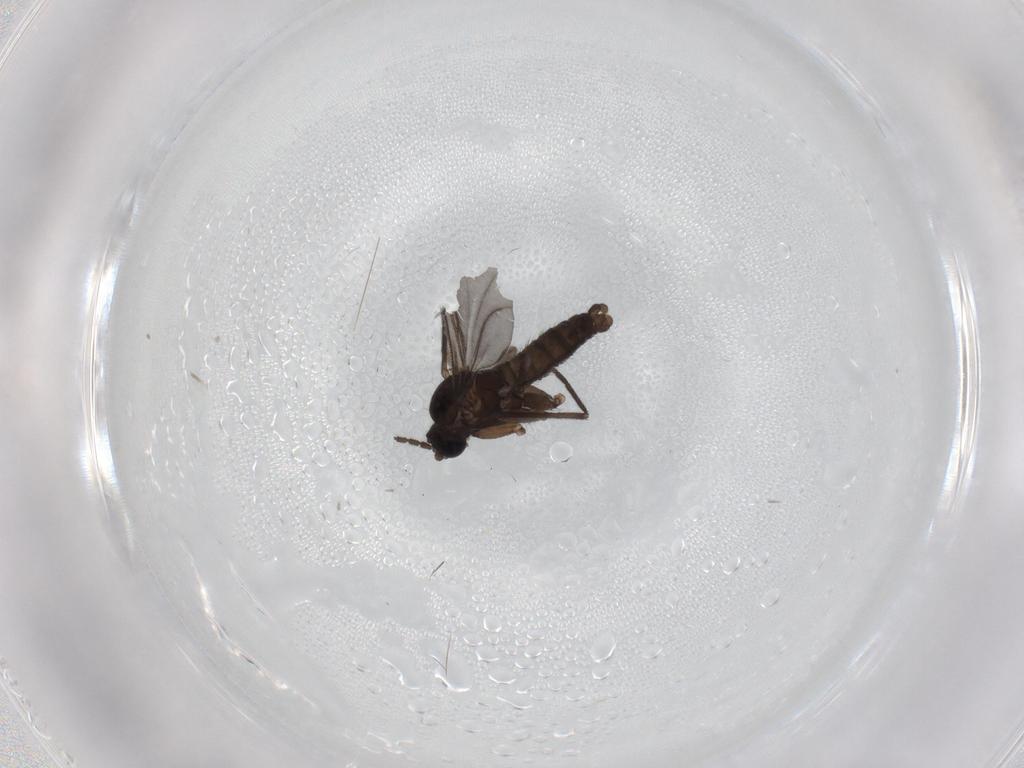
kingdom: Animalia
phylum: Arthropoda
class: Insecta
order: Diptera
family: Sciaridae
